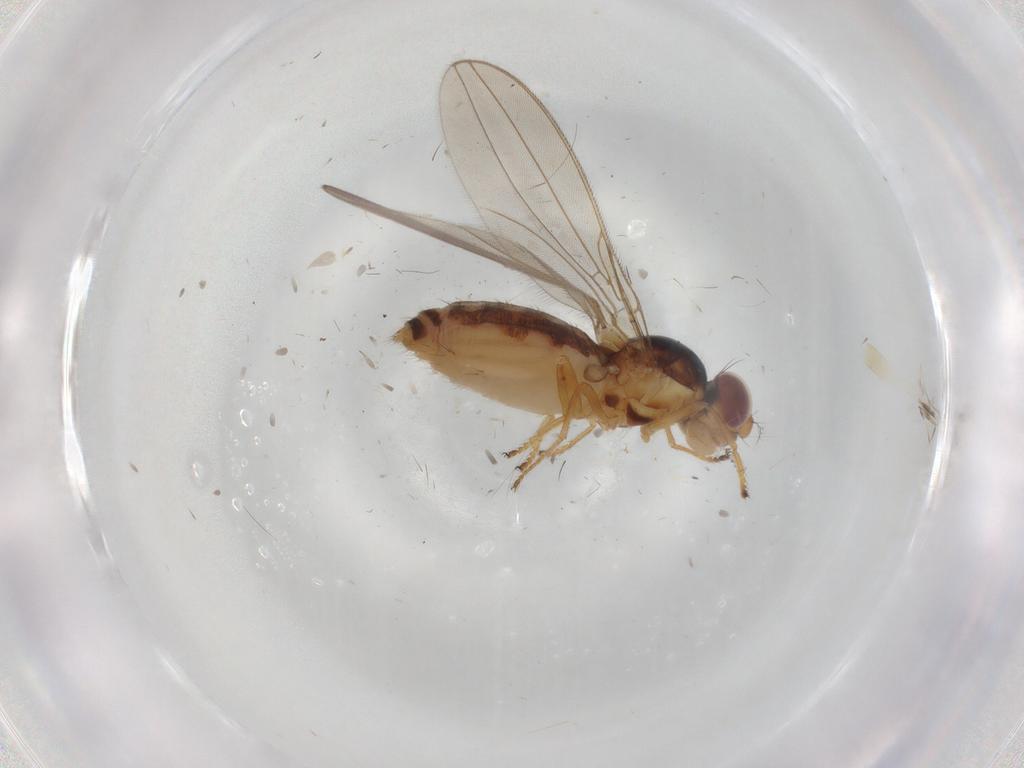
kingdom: Animalia
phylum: Arthropoda
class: Insecta
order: Diptera
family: Asteiidae
